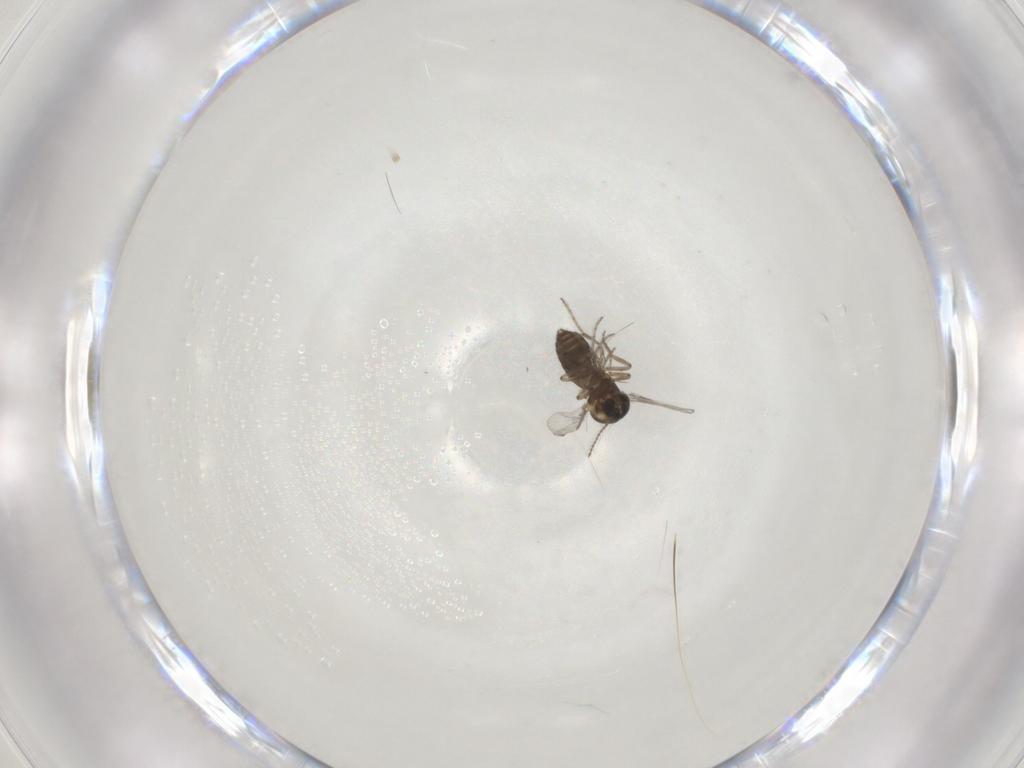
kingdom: Animalia
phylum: Arthropoda
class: Insecta
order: Diptera
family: Ceratopogonidae
